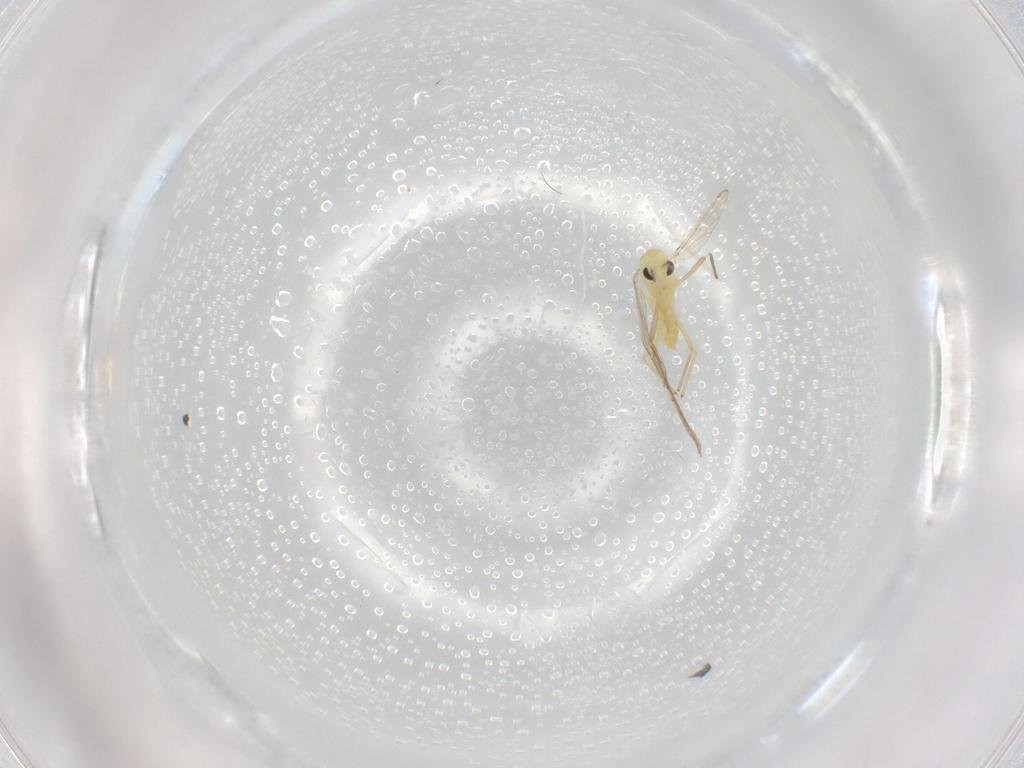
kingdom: Animalia
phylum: Arthropoda
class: Insecta
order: Diptera
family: Chironomidae
